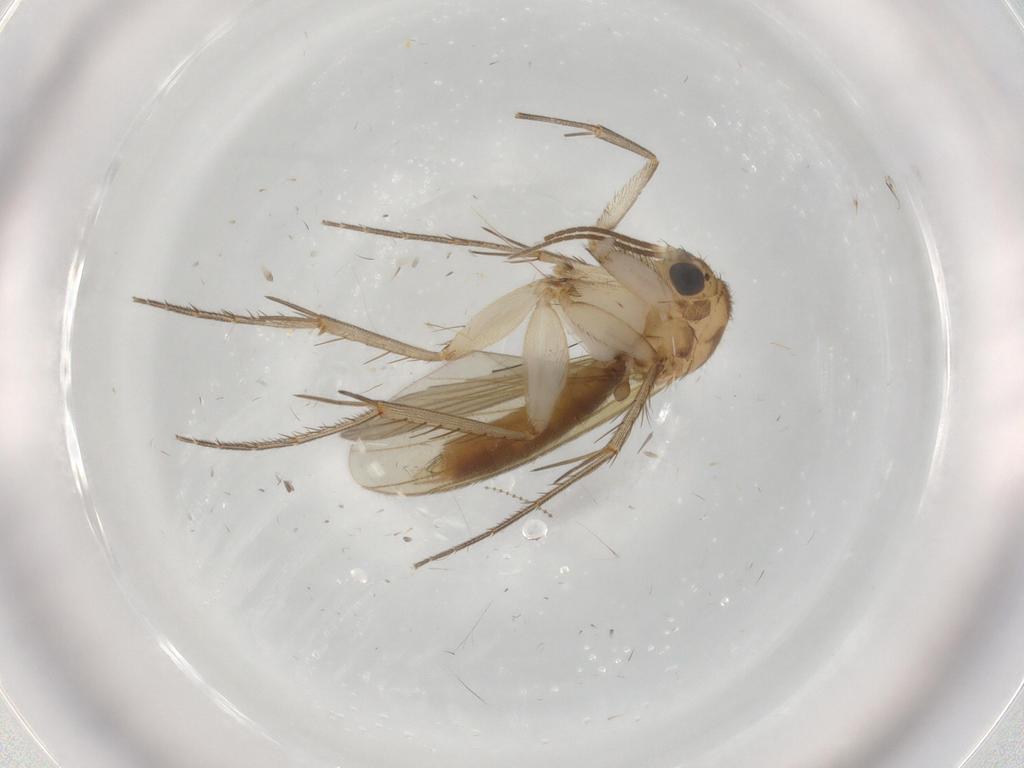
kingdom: Animalia
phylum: Arthropoda
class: Insecta
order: Diptera
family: Mycetophilidae
